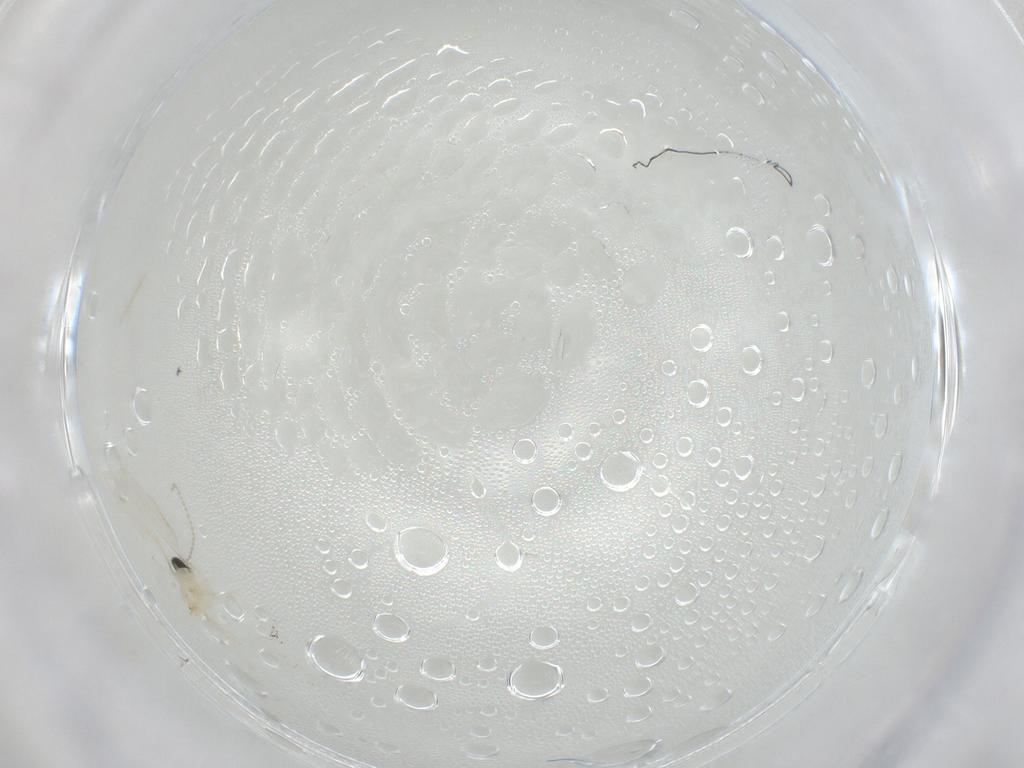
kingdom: Animalia
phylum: Arthropoda
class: Insecta
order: Diptera
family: Cecidomyiidae
